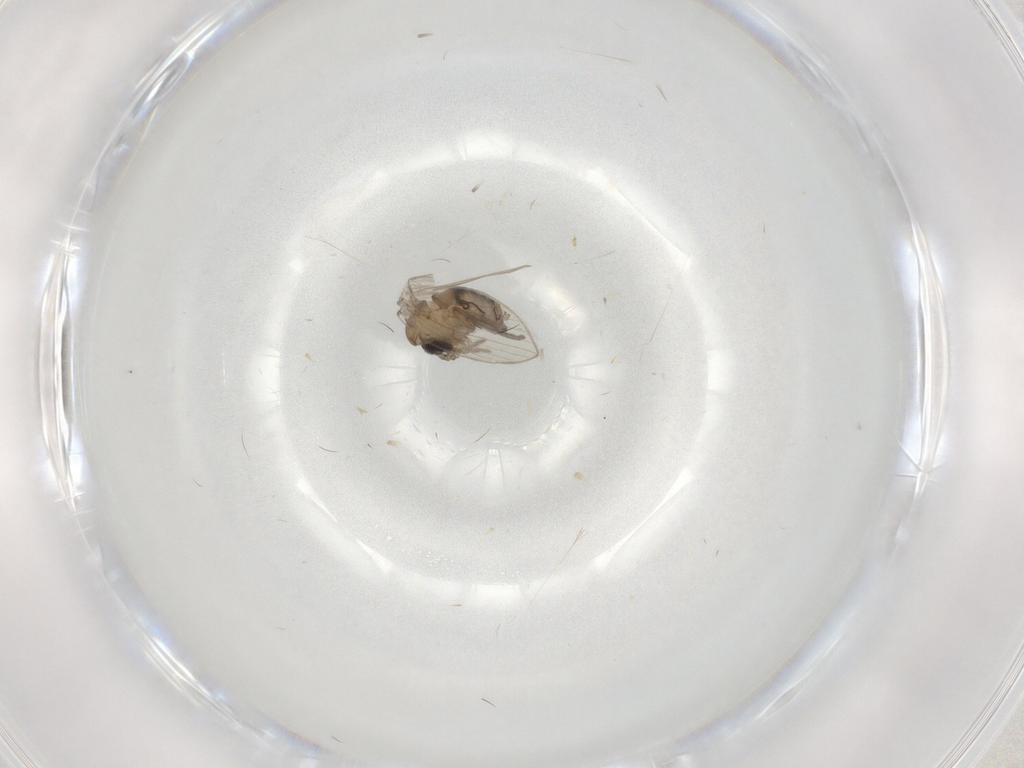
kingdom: Animalia
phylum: Arthropoda
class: Insecta
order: Diptera
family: Psychodidae
